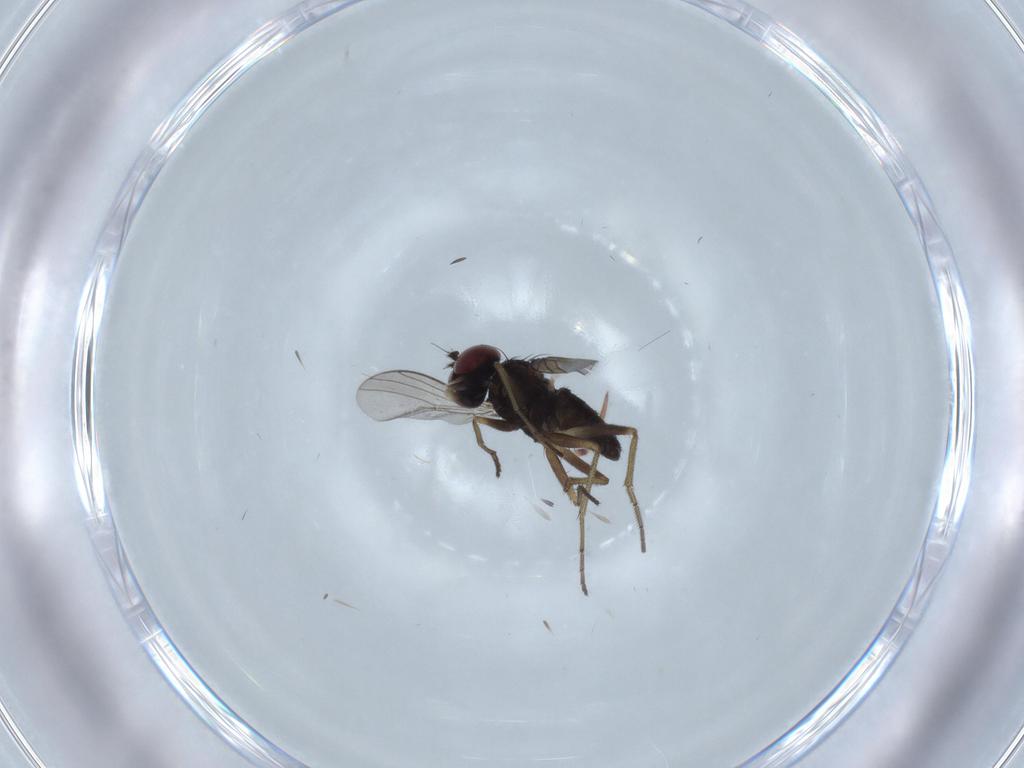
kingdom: Animalia
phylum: Arthropoda
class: Insecta
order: Diptera
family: Dolichopodidae
